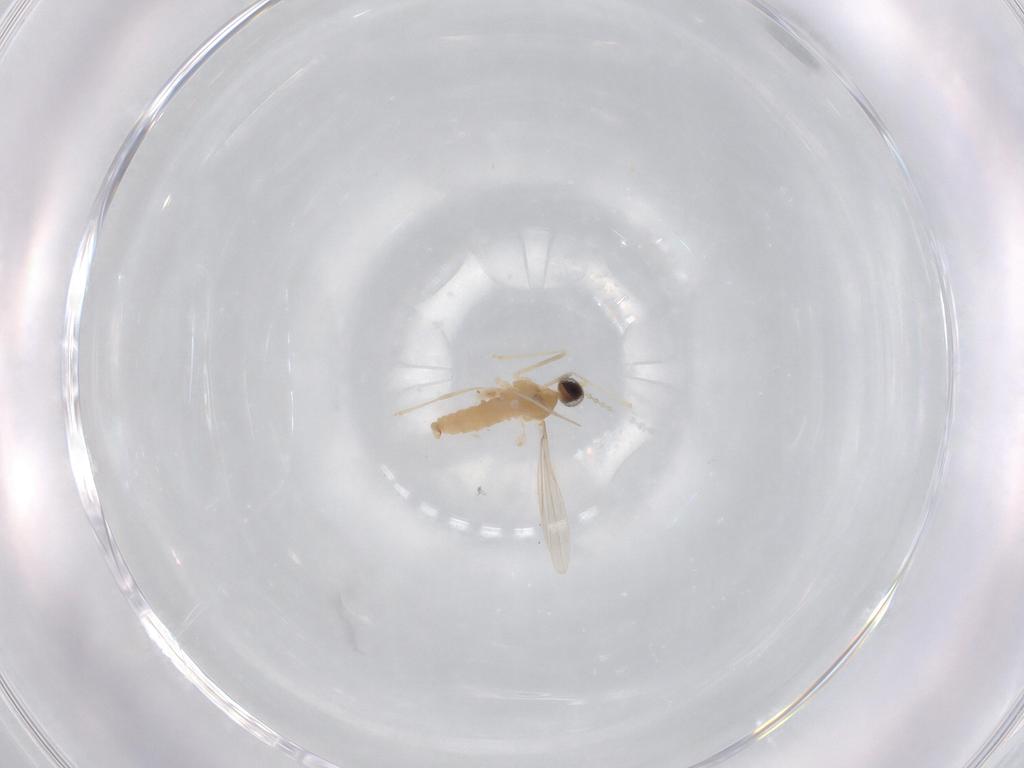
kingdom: Animalia
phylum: Arthropoda
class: Insecta
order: Diptera
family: Cecidomyiidae
